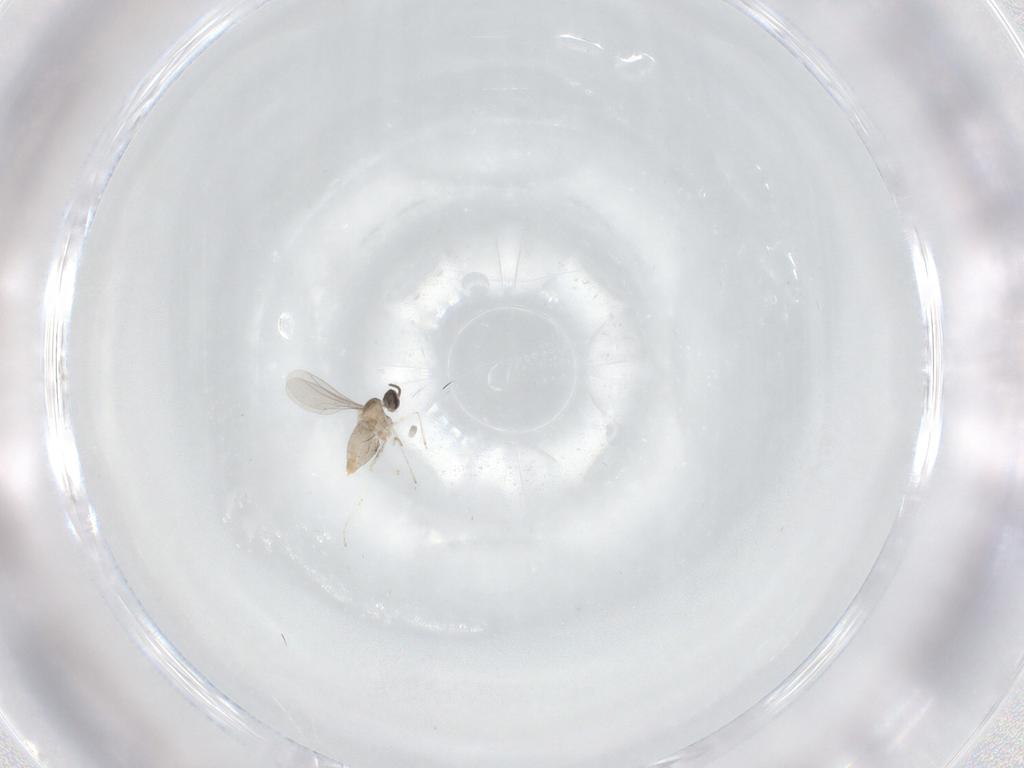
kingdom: Animalia
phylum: Arthropoda
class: Insecta
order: Diptera
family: Cecidomyiidae
